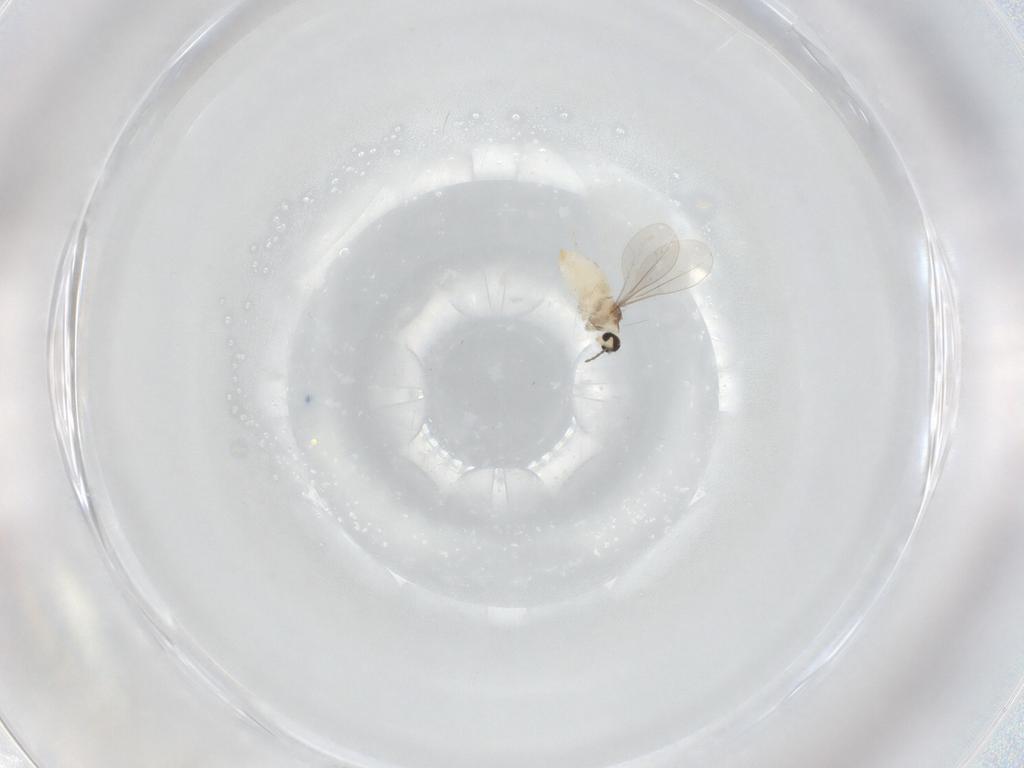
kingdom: Animalia
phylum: Arthropoda
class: Insecta
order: Diptera
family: Cecidomyiidae
